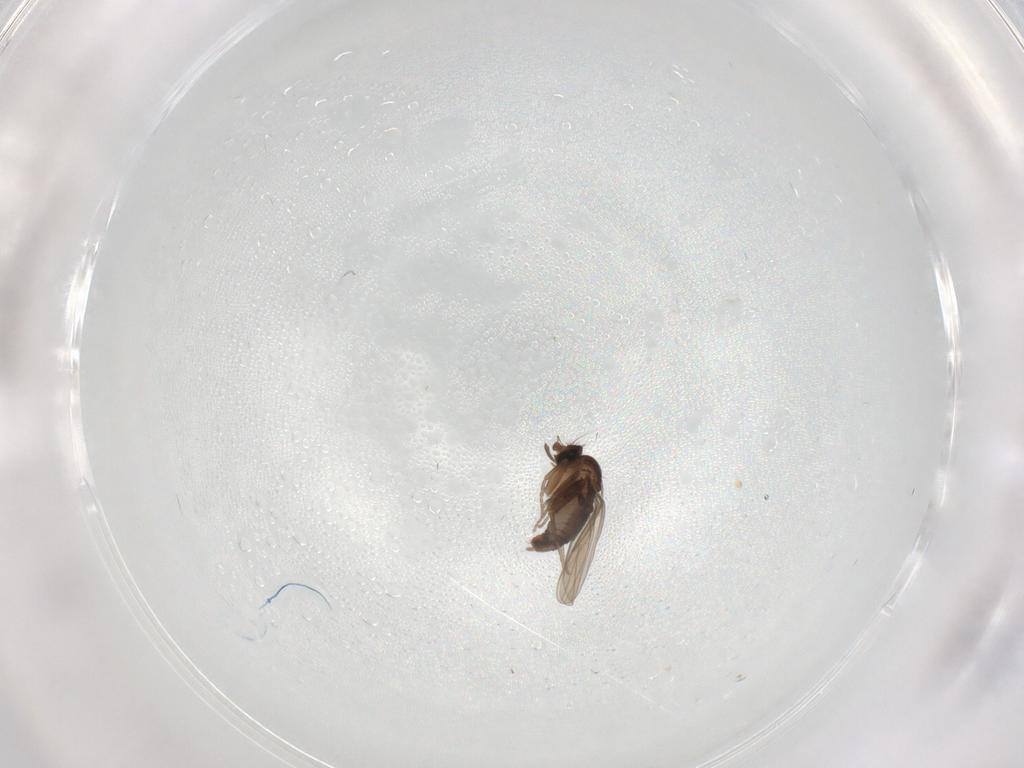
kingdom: Animalia
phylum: Arthropoda
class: Insecta
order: Diptera
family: Ceratopogonidae
